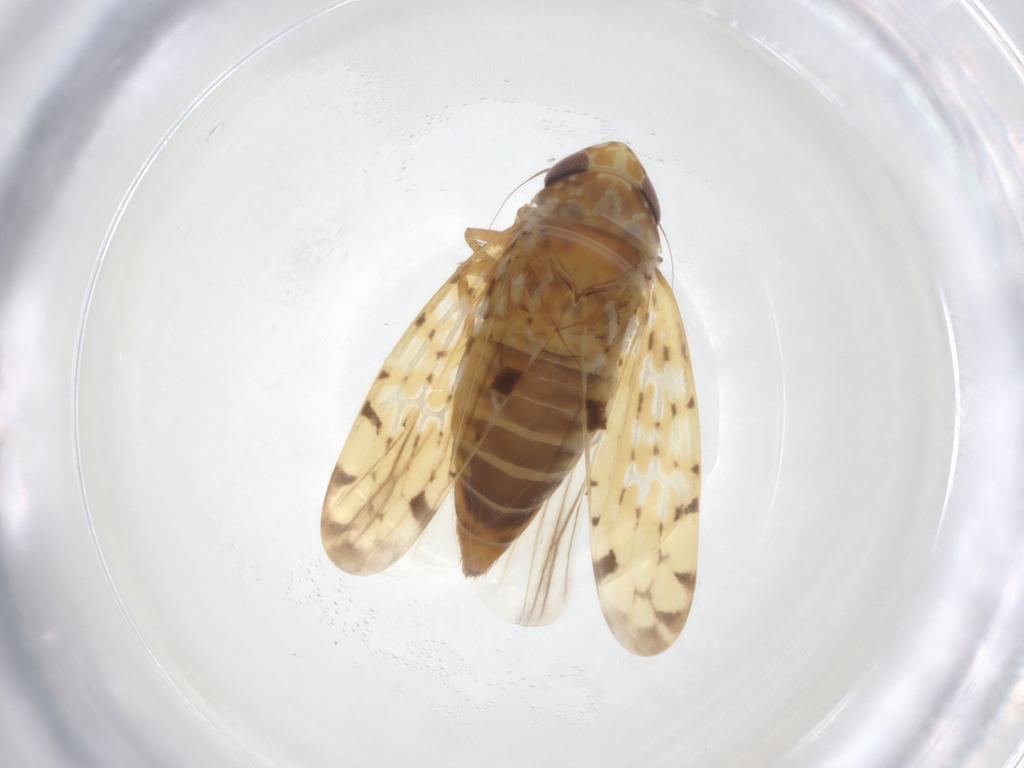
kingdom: Animalia
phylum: Arthropoda
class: Insecta
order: Hemiptera
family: Cicadellidae
